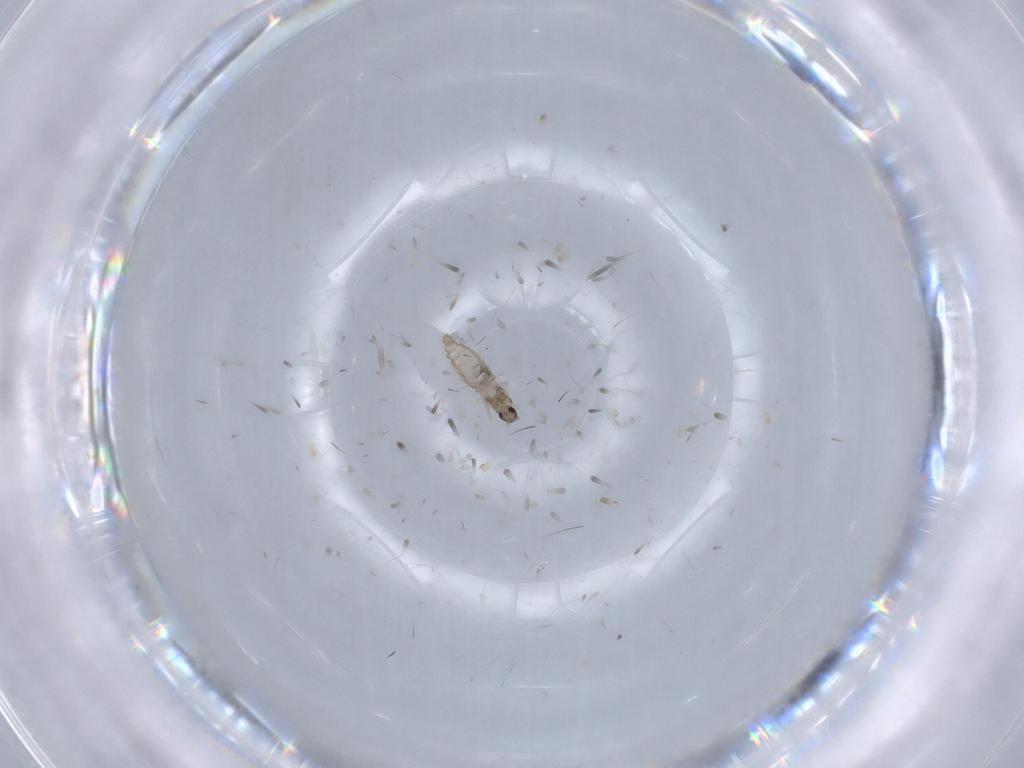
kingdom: Animalia
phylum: Arthropoda
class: Insecta
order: Diptera
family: Cecidomyiidae
